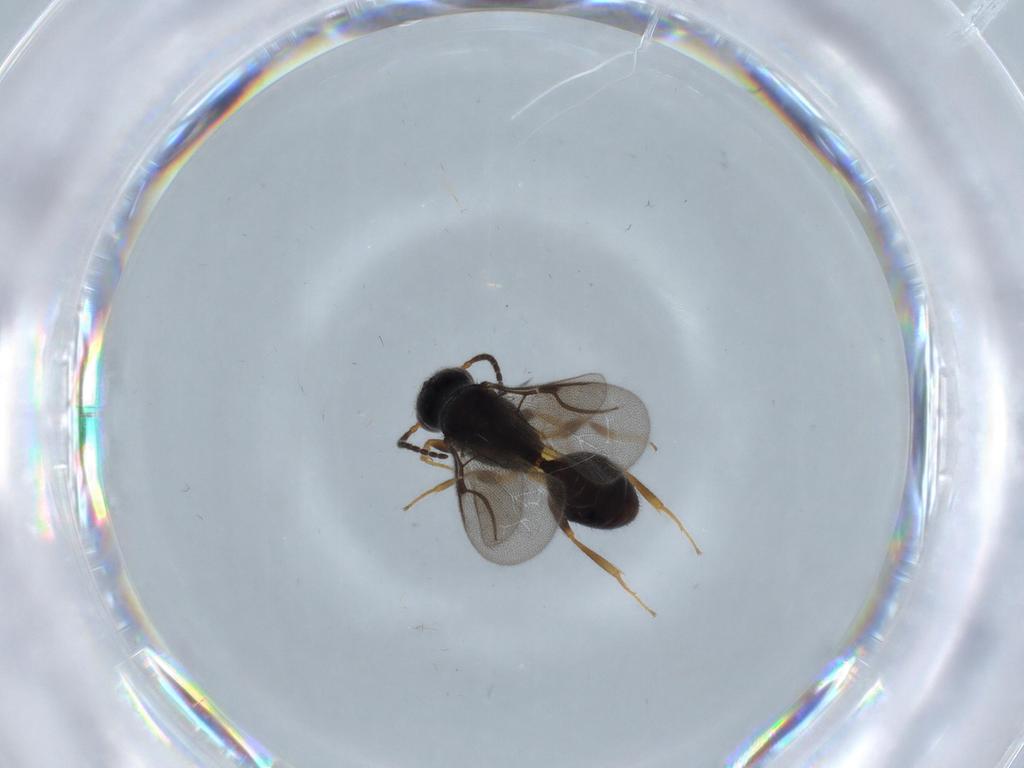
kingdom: Animalia
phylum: Arthropoda
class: Insecta
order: Hymenoptera
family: Bethylidae
